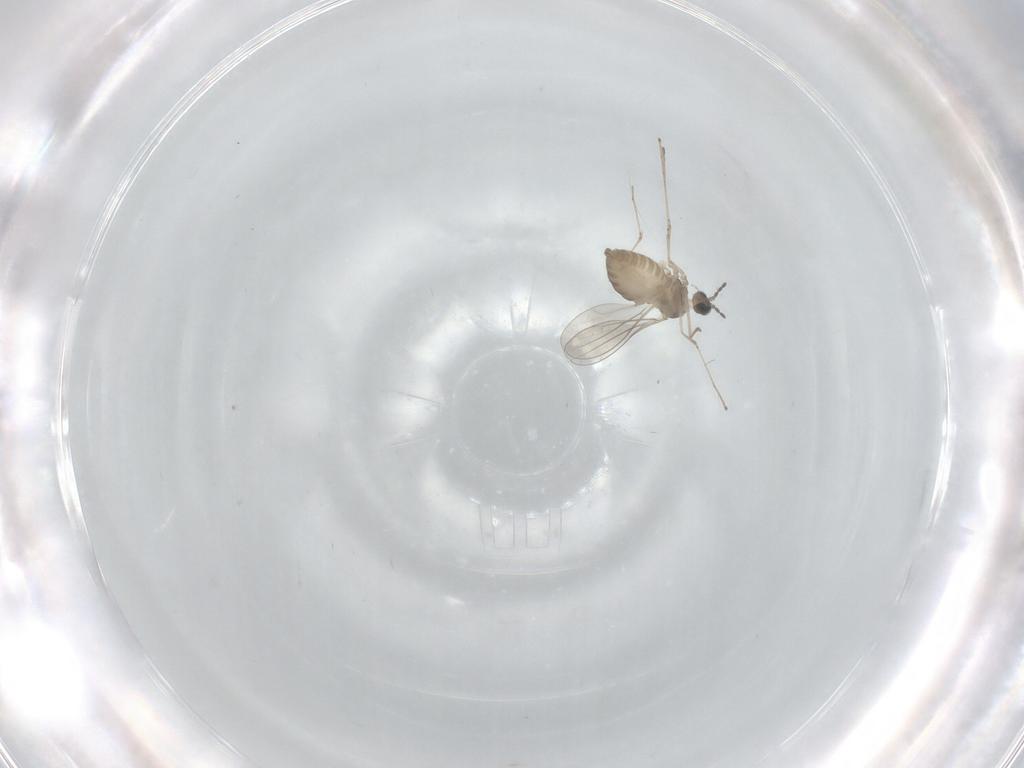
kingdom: Animalia
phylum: Arthropoda
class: Insecta
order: Diptera
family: Cecidomyiidae
